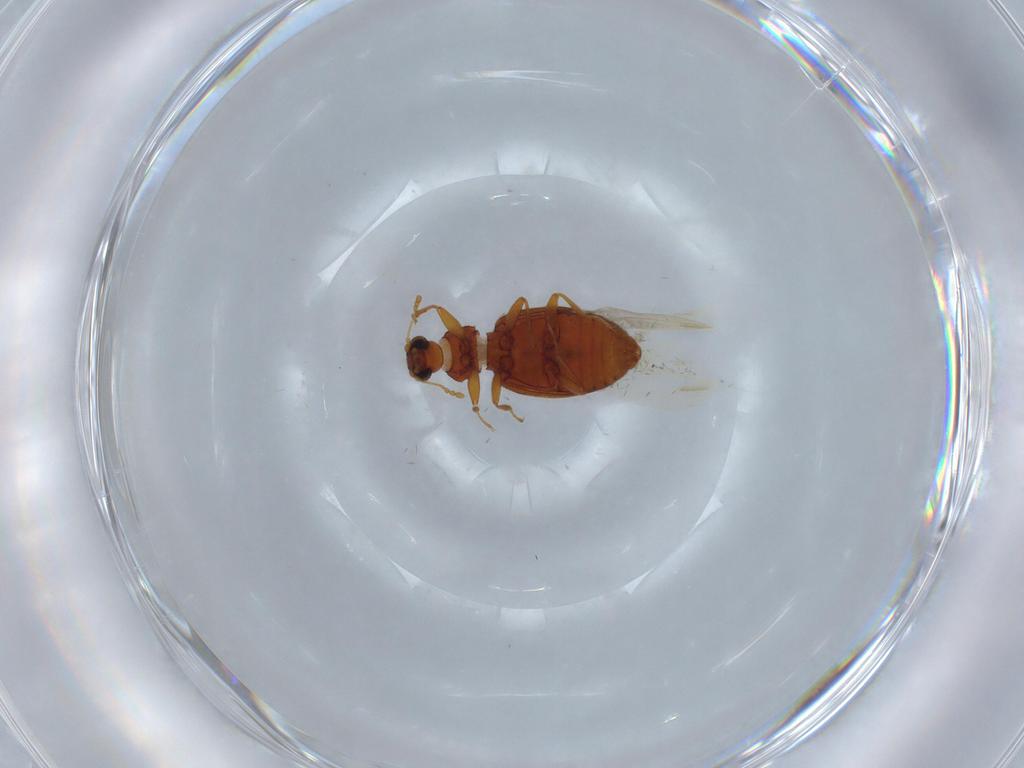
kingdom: Animalia
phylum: Arthropoda
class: Insecta
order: Coleoptera
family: Latridiidae
